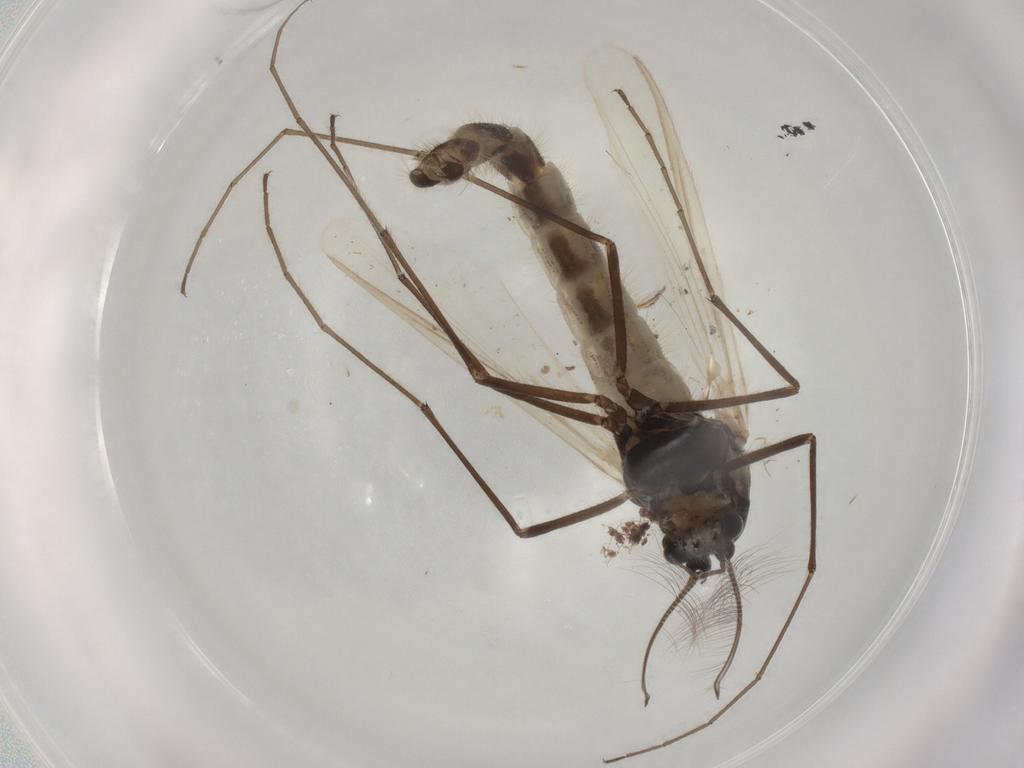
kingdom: Animalia
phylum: Arthropoda
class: Insecta
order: Diptera
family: Chironomidae
